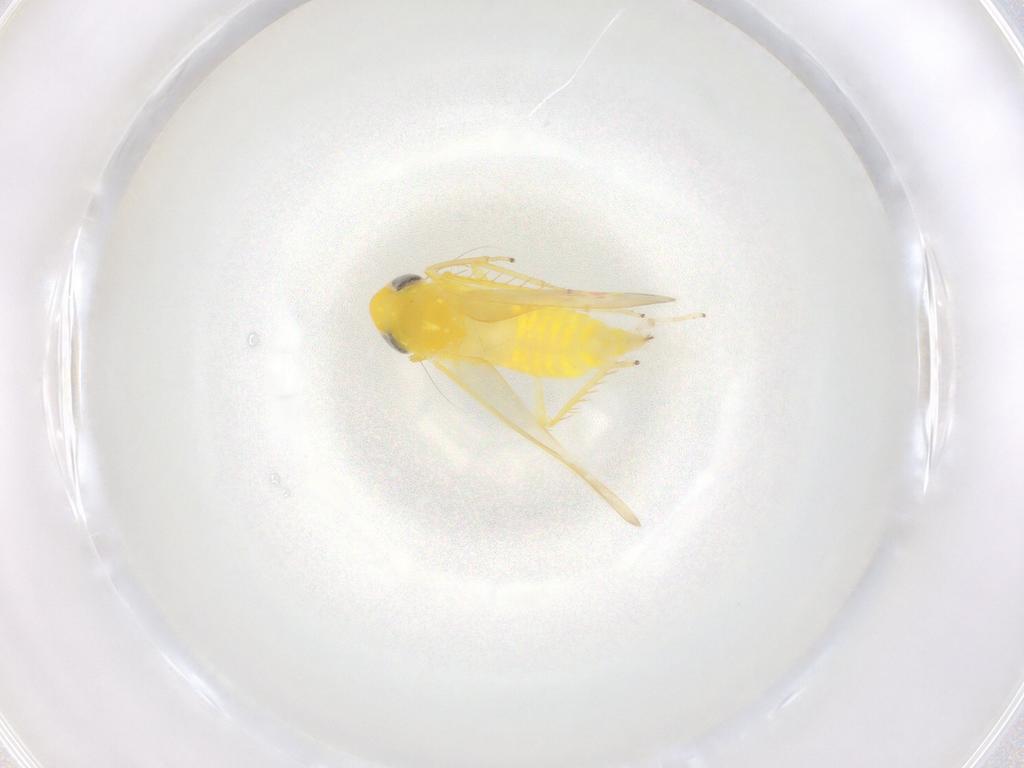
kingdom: Animalia
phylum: Arthropoda
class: Insecta
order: Hemiptera
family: Cicadellidae
